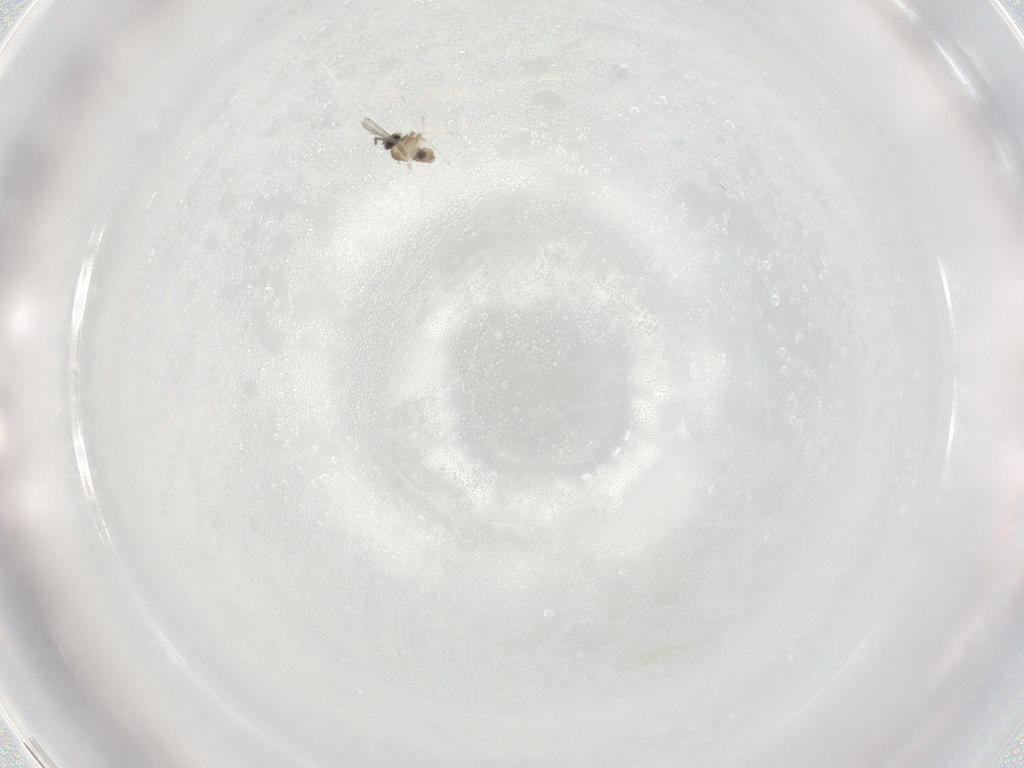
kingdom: Animalia
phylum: Arthropoda
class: Insecta
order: Diptera
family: Cecidomyiidae
